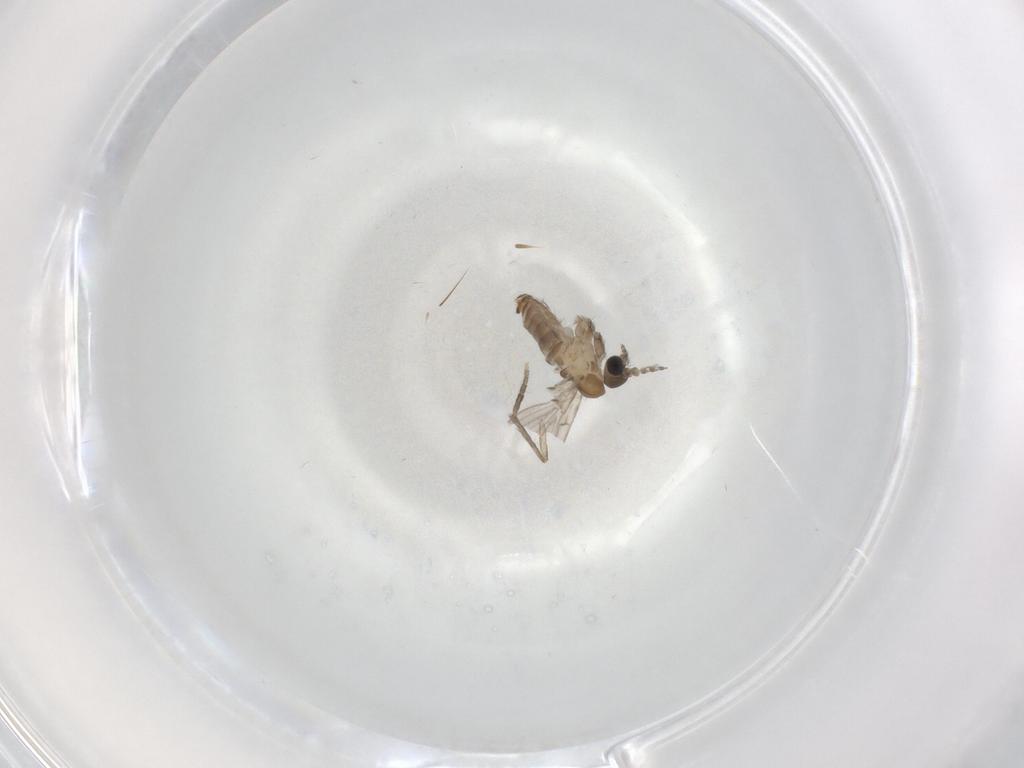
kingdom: Animalia
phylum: Arthropoda
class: Insecta
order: Diptera
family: Psychodidae
